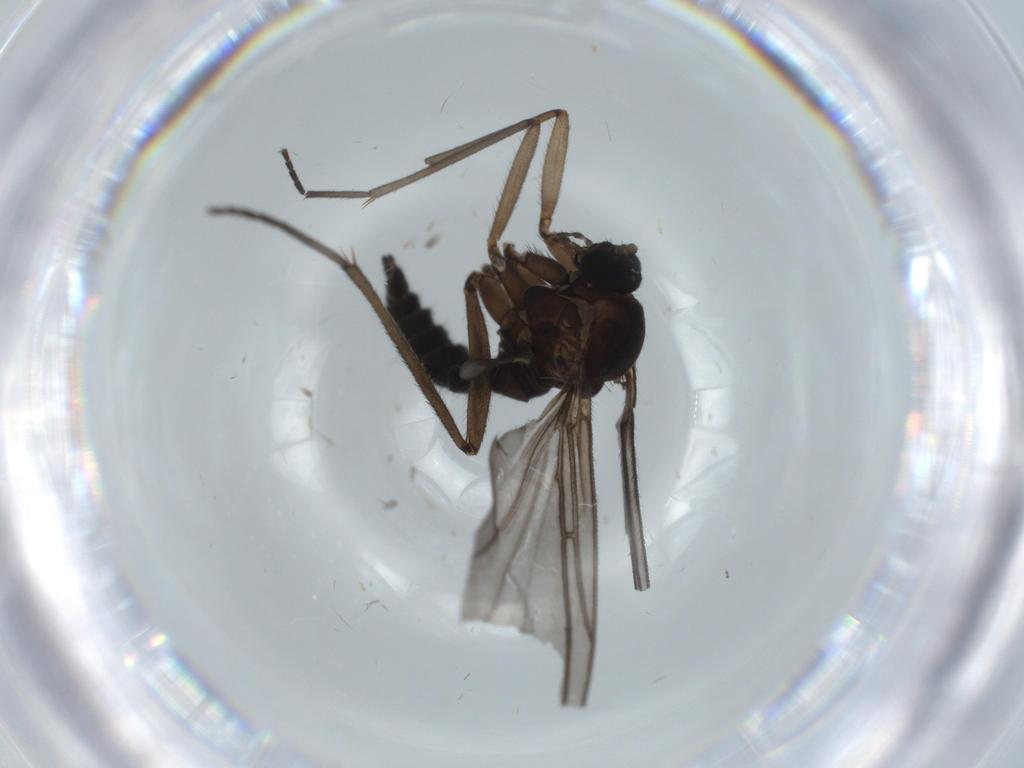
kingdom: Animalia
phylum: Arthropoda
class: Insecta
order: Diptera
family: Sciaridae
